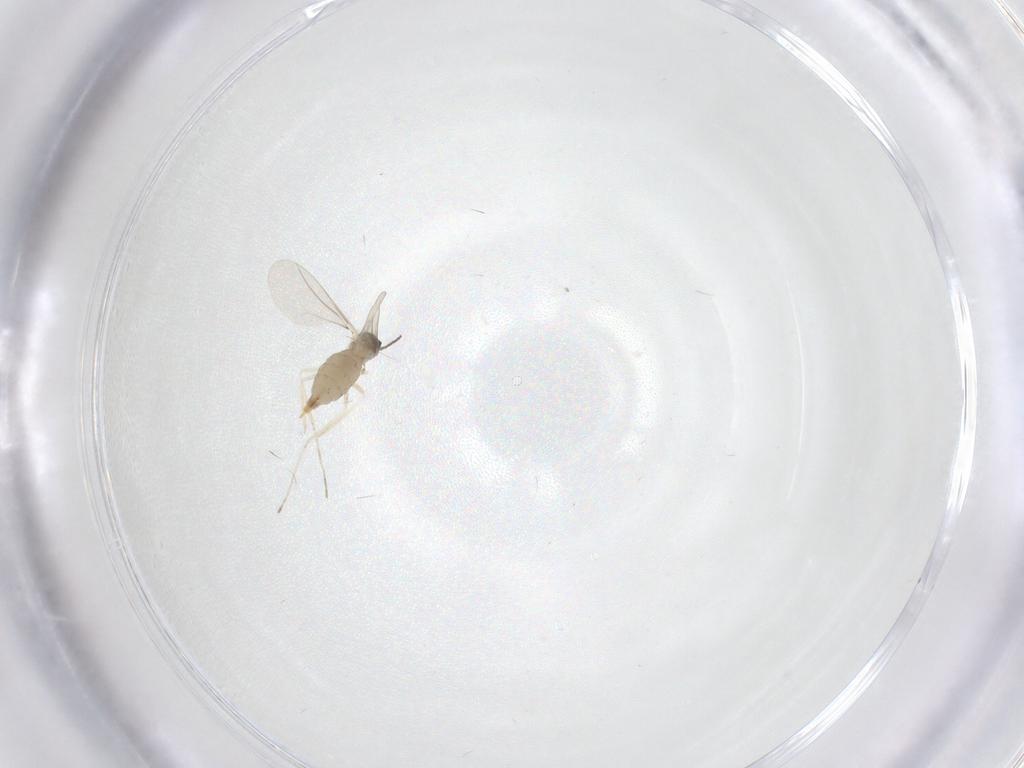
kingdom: Animalia
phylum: Arthropoda
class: Insecta
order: Diptera
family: Cecidomyiidae
